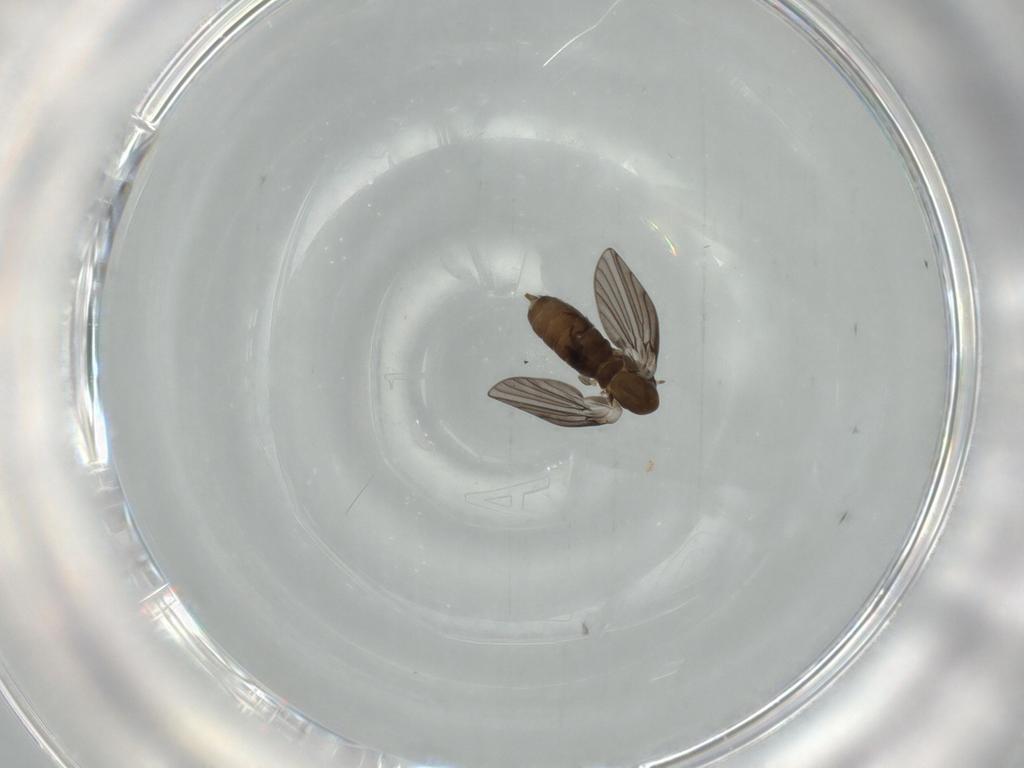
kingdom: Animalia
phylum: Arthropoda
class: Insecta
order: Diptera
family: Psychodidae
